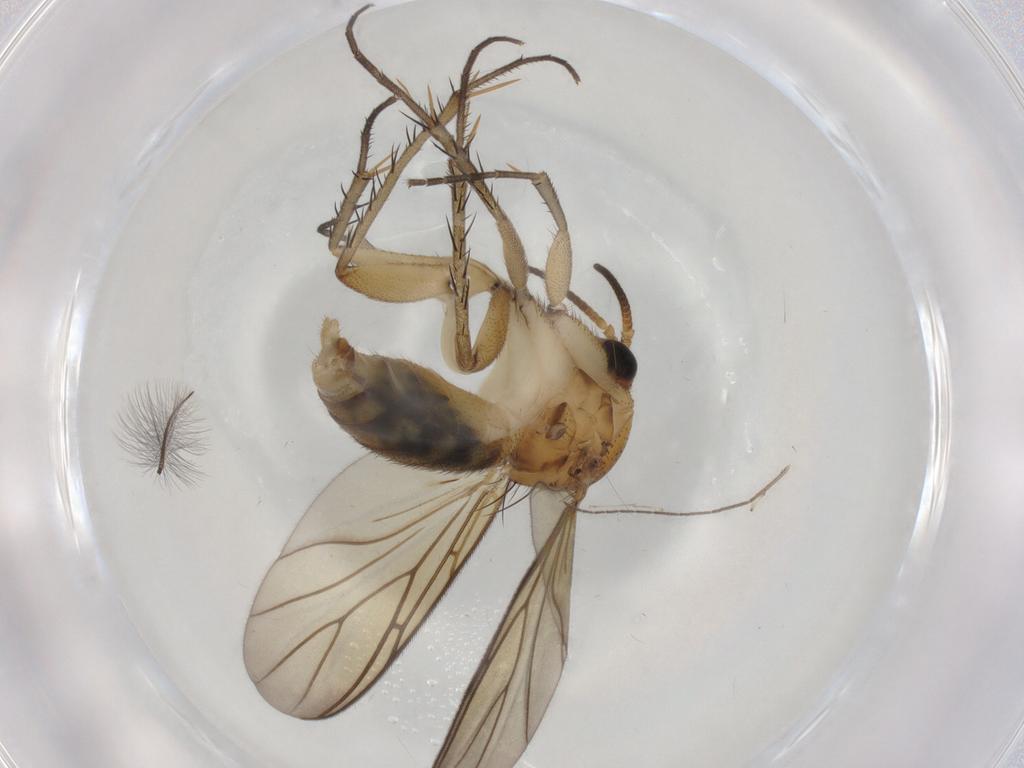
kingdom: Animalia
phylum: Arthropoda
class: Insecta
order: Diptera
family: Mycetophilidae
